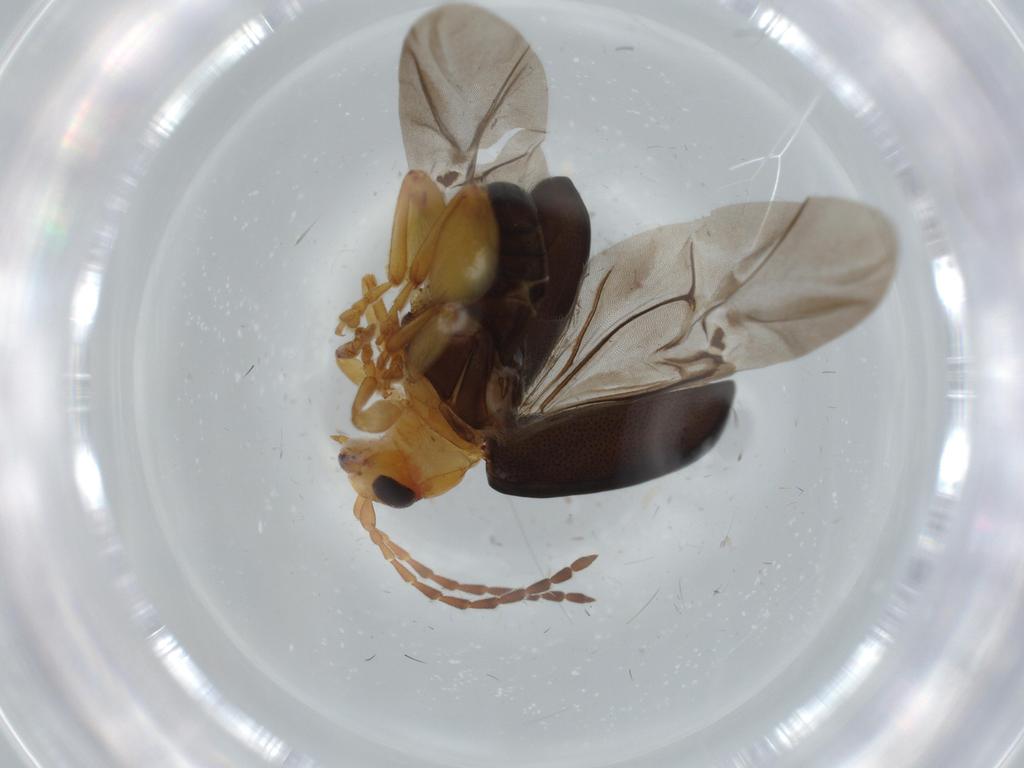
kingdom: Animalia
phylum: Arthropoda
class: Insecta
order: Coleoptera
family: Chrysomelidae
